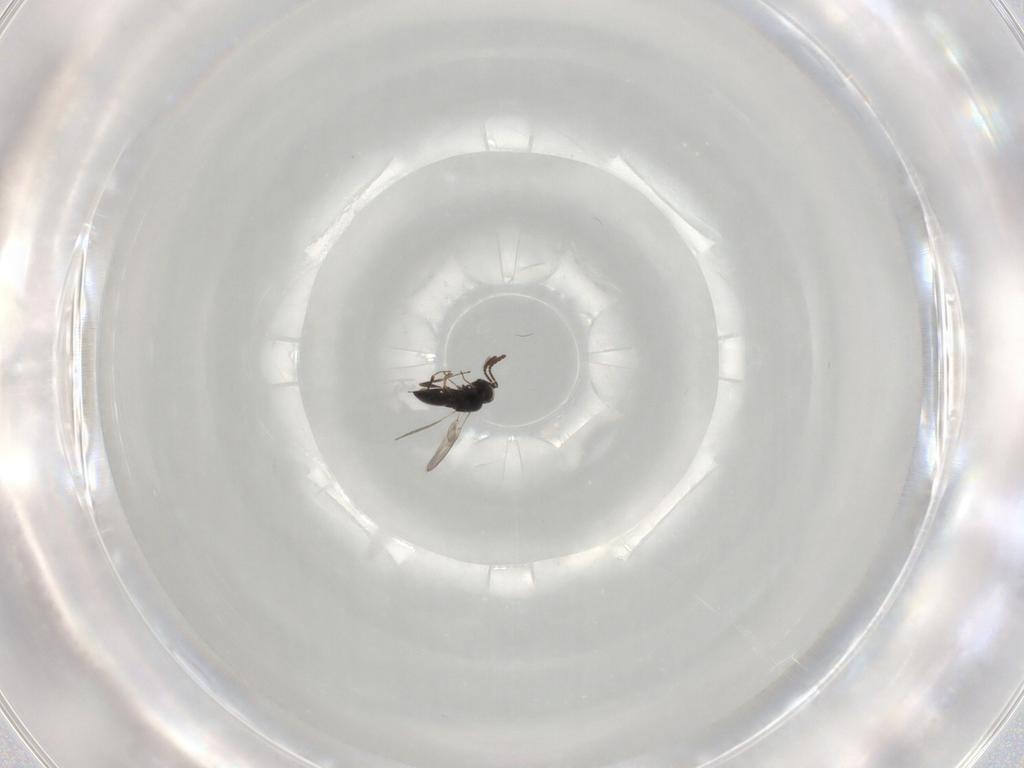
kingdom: Animalia
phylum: Arthropoda
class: Insecta
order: Hymenoptera
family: Scelionidae
